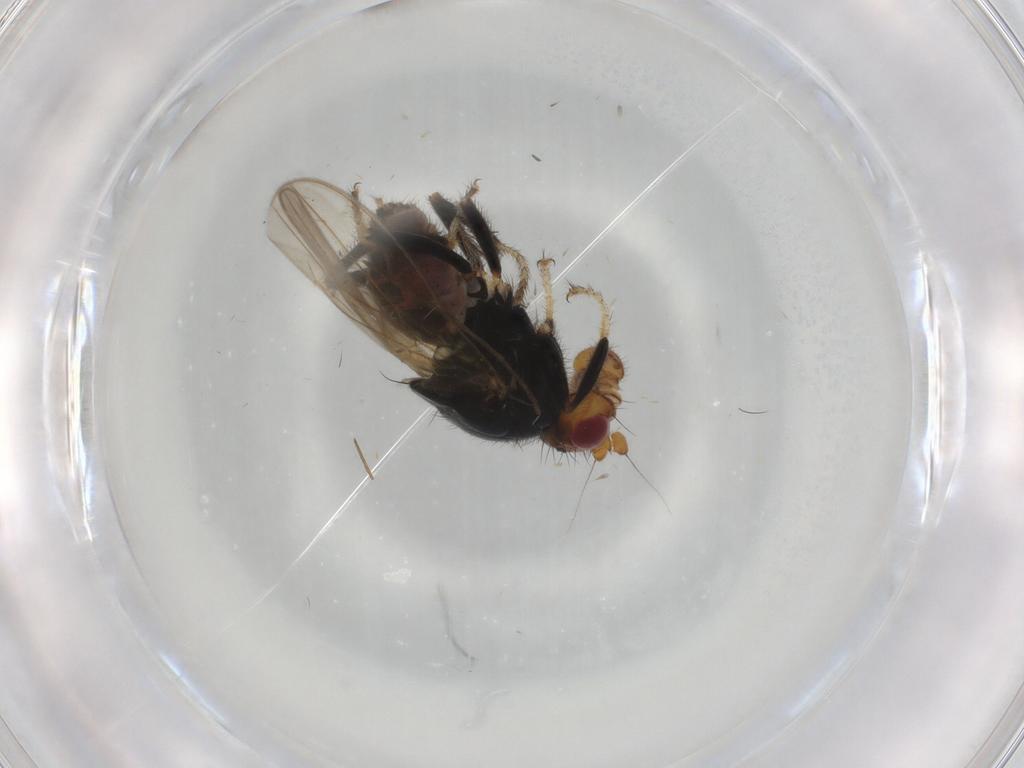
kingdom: Animalia
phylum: Arthropoda
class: Insecta
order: Diptera
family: Sphaeroceridae
